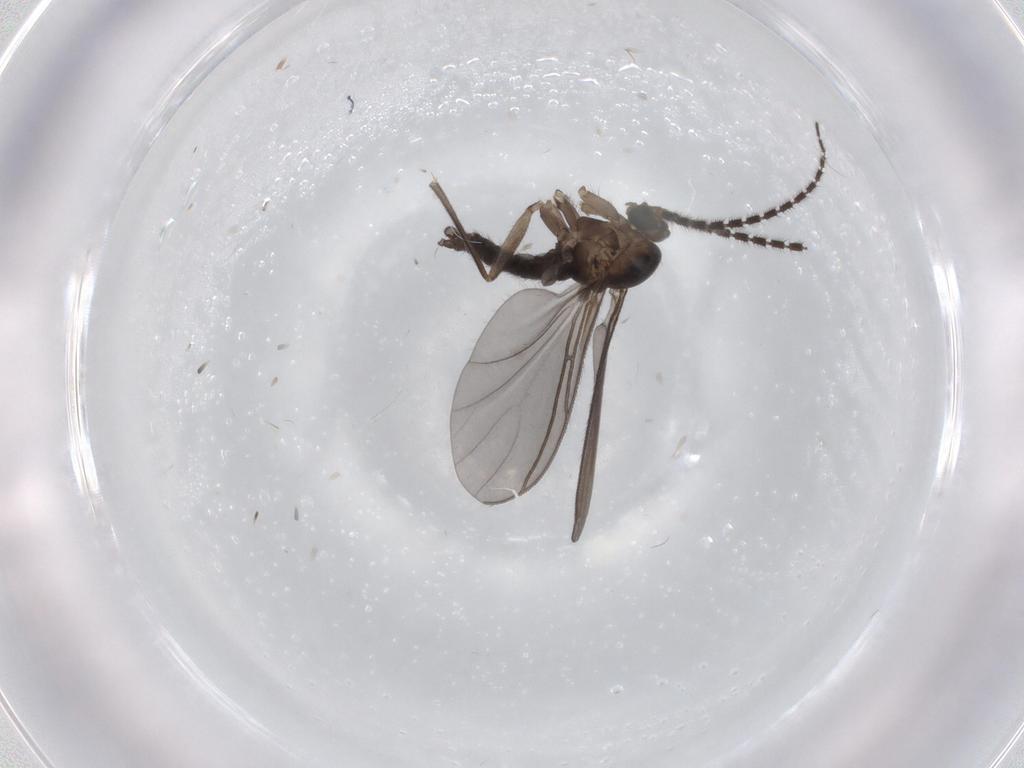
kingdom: Animalia
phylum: Arthropoda
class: Insecta
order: Diptera
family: Sciaridae
